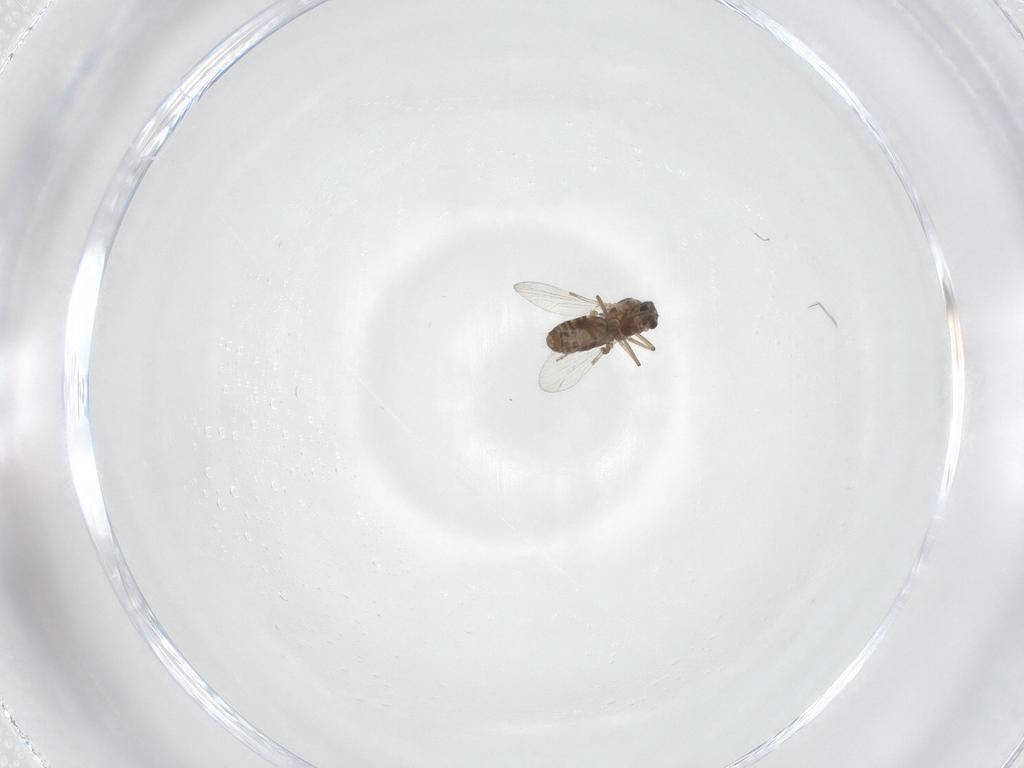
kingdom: Animalia
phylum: Arthropoda
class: Insecta
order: Diptera
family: Ceratopogonidae
